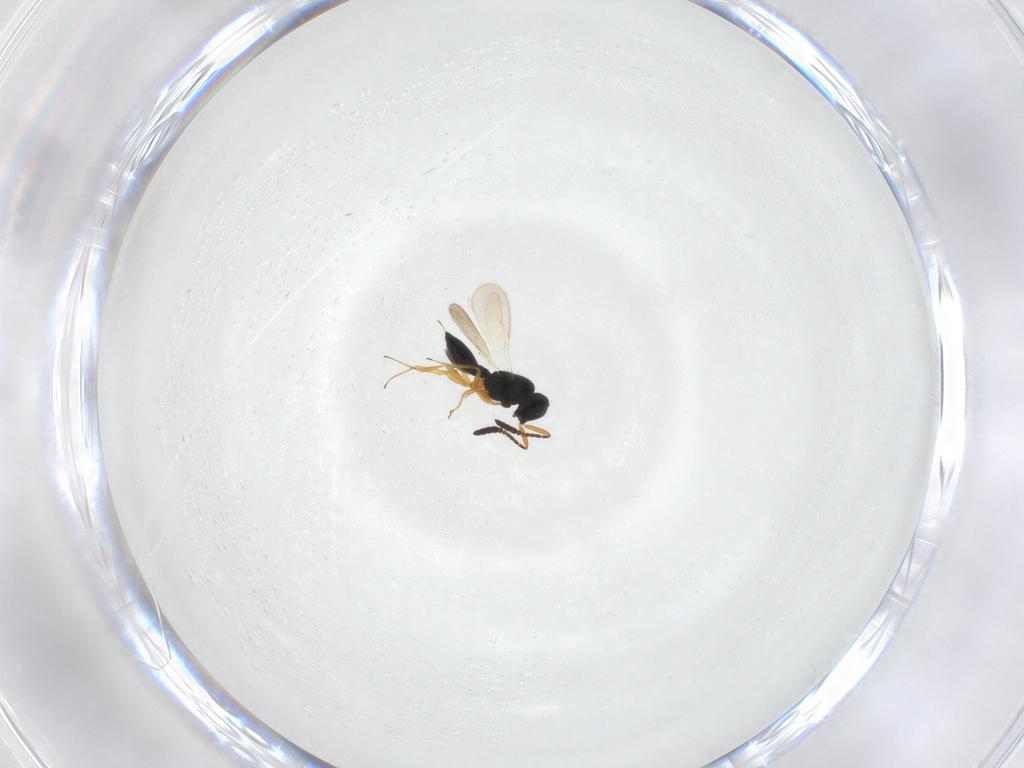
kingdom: Animalia
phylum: Arthropoda
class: Insecta
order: Hymenoptera
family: Scelionidae
